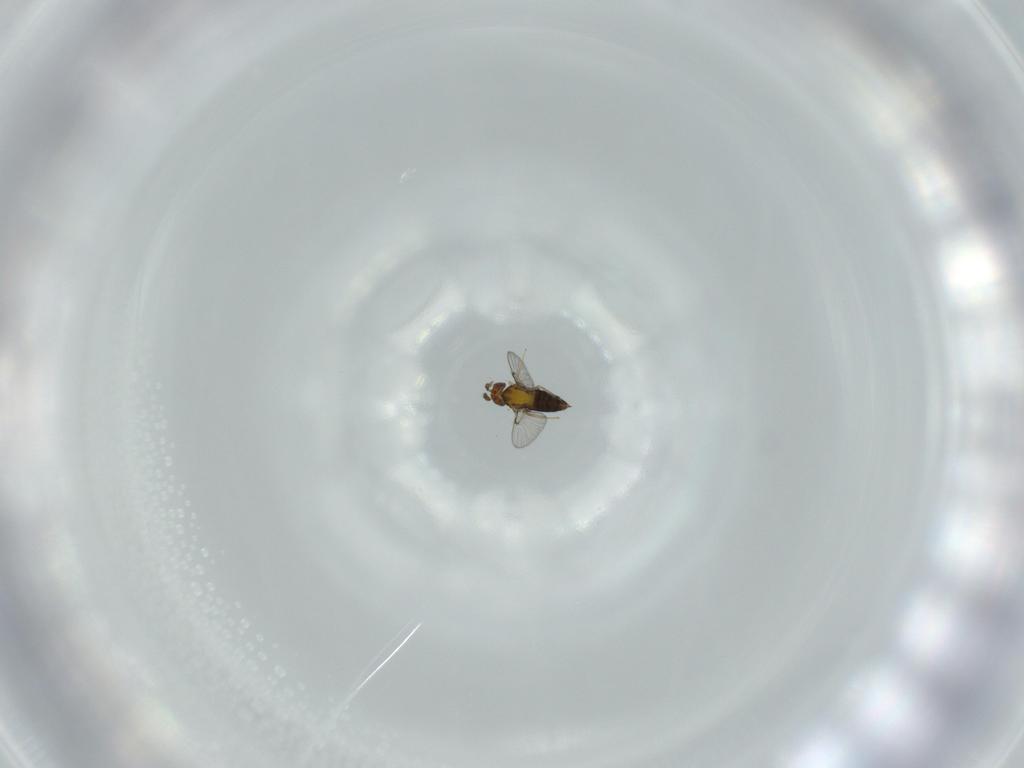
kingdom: Animalia
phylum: Arthropoda
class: Insecta
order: Hymenoptera
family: Trichogrammatidae
